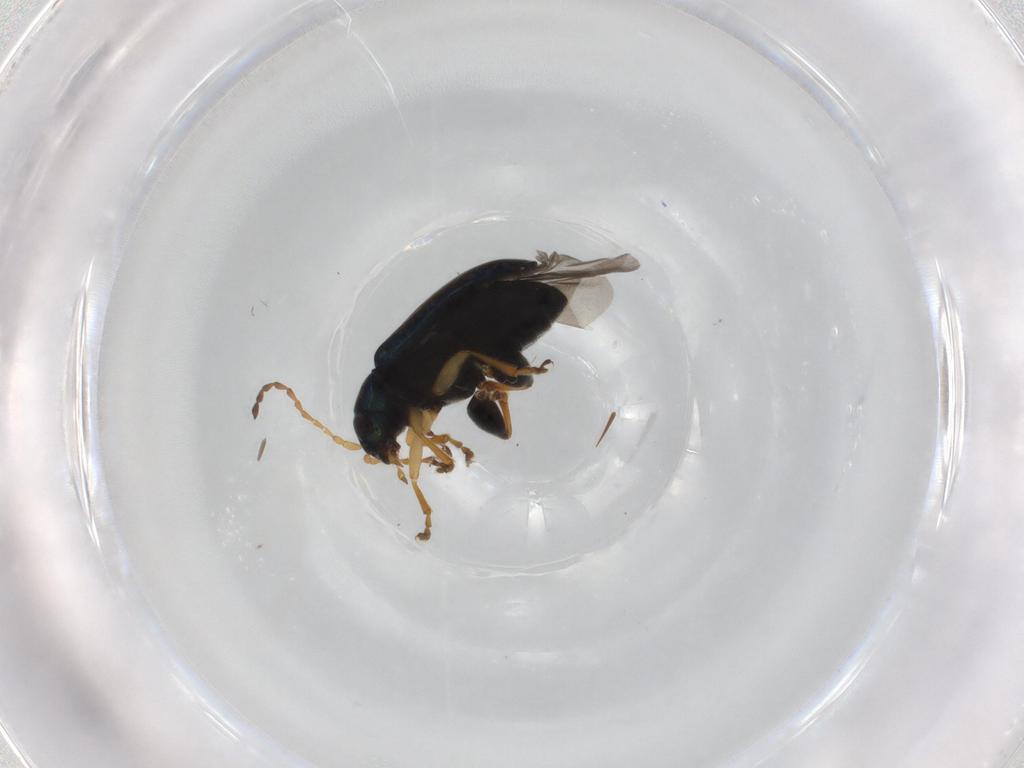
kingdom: Animalia
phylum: Arthropoda
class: Insecta
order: Coleoptera
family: Chrysomelidae
